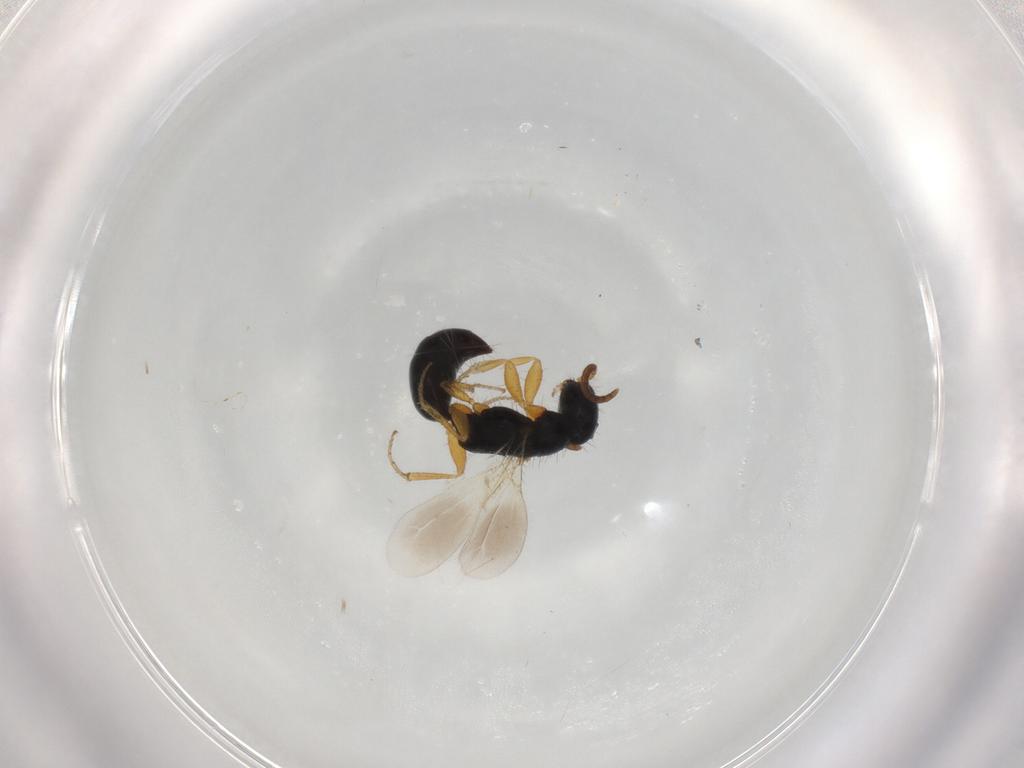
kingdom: Animalia
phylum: Arthropoda
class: Insecta
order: Hymenoptera
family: Bethylidae
